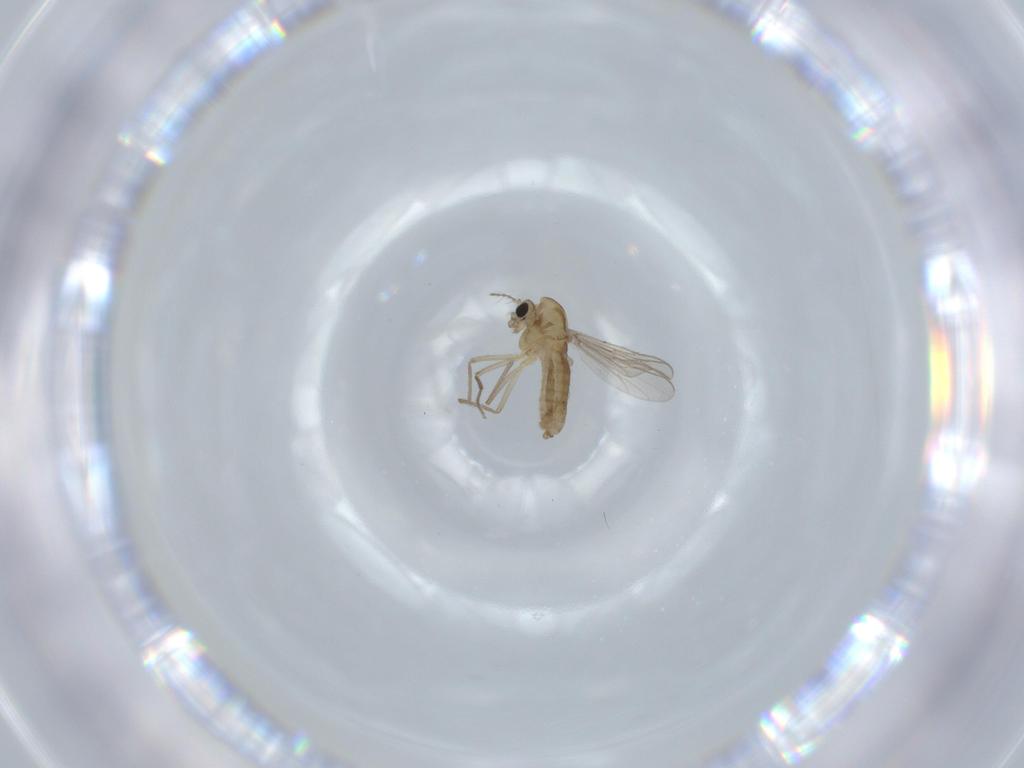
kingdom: Animalia
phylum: Arthropoda
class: Insecta
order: Diptera
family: Chironomidae
